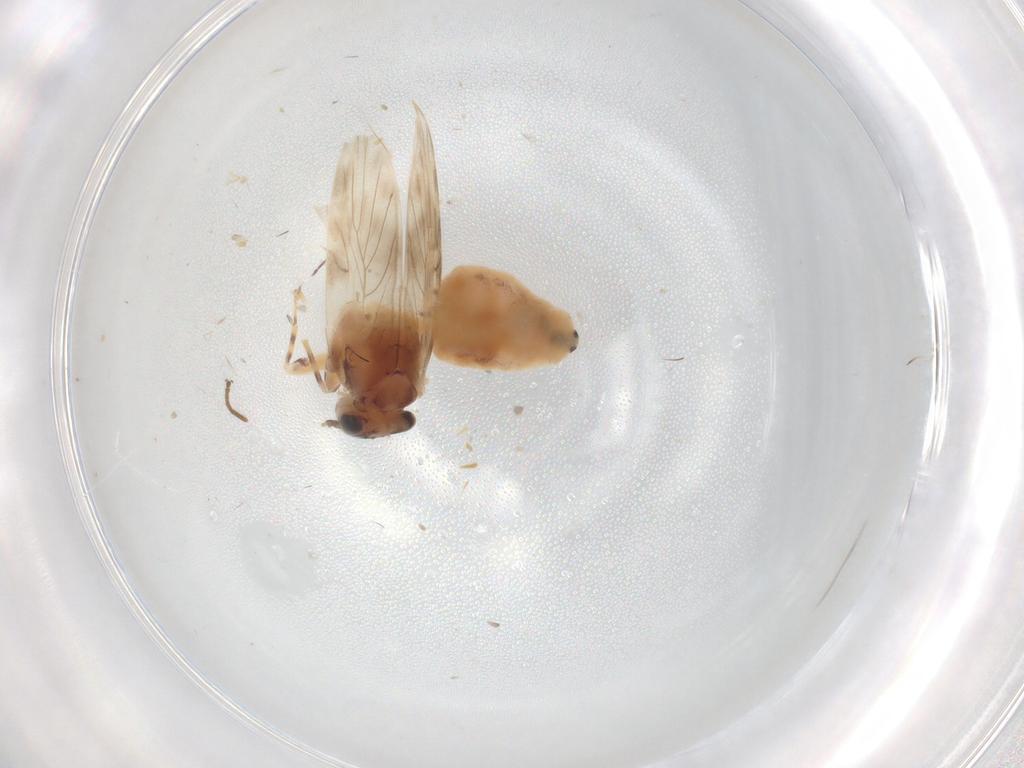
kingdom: Animalia
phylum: Arthropoda
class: Insecta
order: Psocodea
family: Lepidopsocidae
